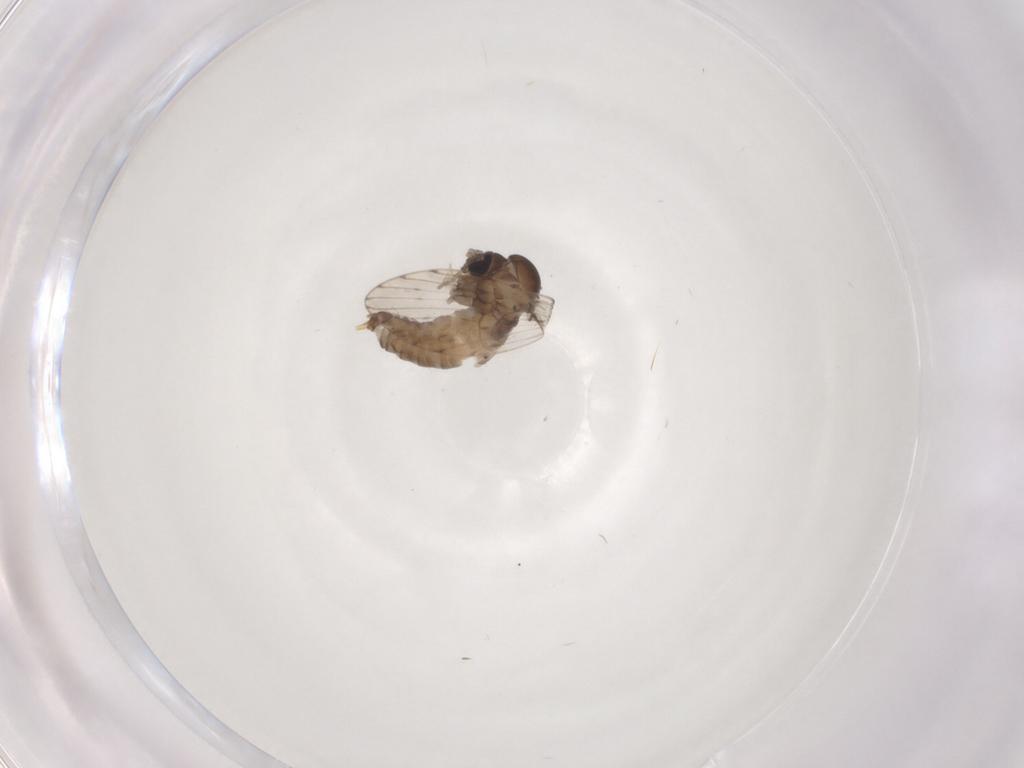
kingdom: Animalia
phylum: Arthropoda
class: Insecta
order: Diptera
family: Psychodidae
